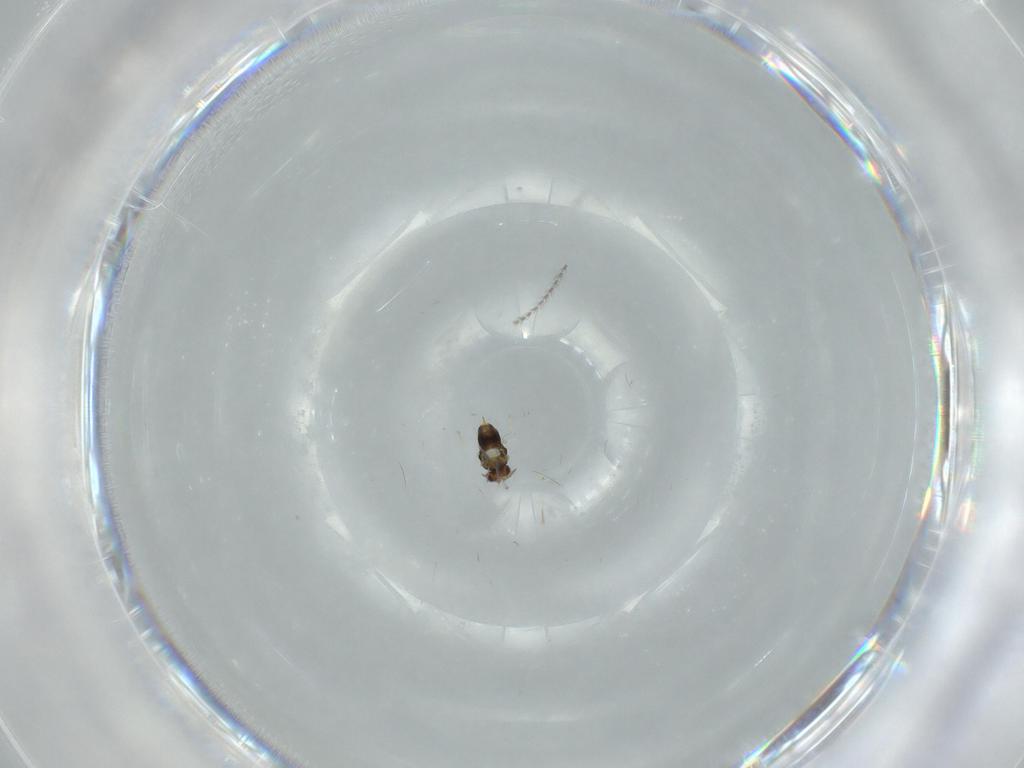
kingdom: Animalia
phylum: Arthropoda
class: Insecta
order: Hymenoptera
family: Aphelinidae
